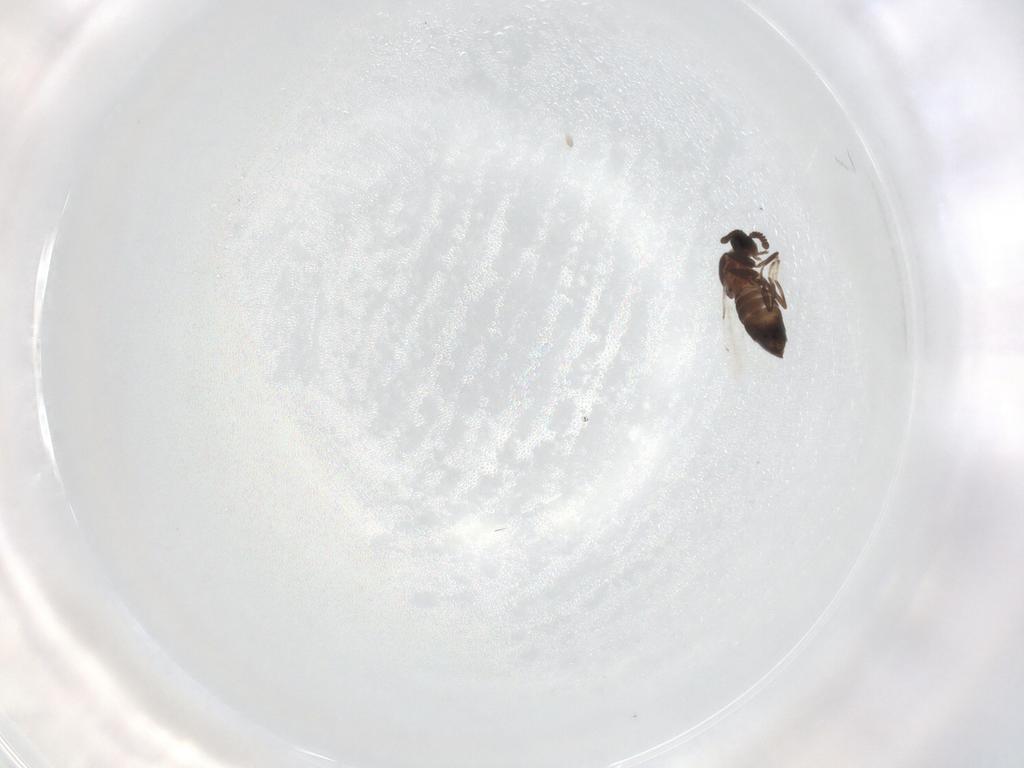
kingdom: Animalia
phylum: Arthropoda
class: Insecta
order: Diptera
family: Scatopsidae
